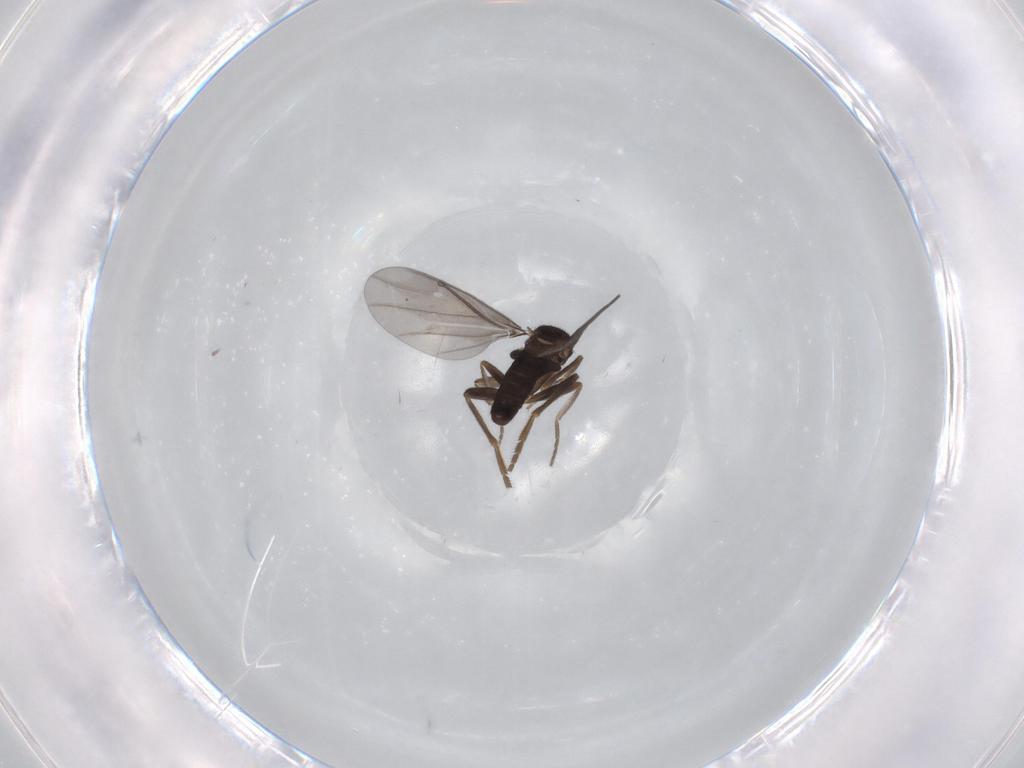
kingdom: Animalia
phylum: Arthropoda
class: Insecta
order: Diptera
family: Phoridae
